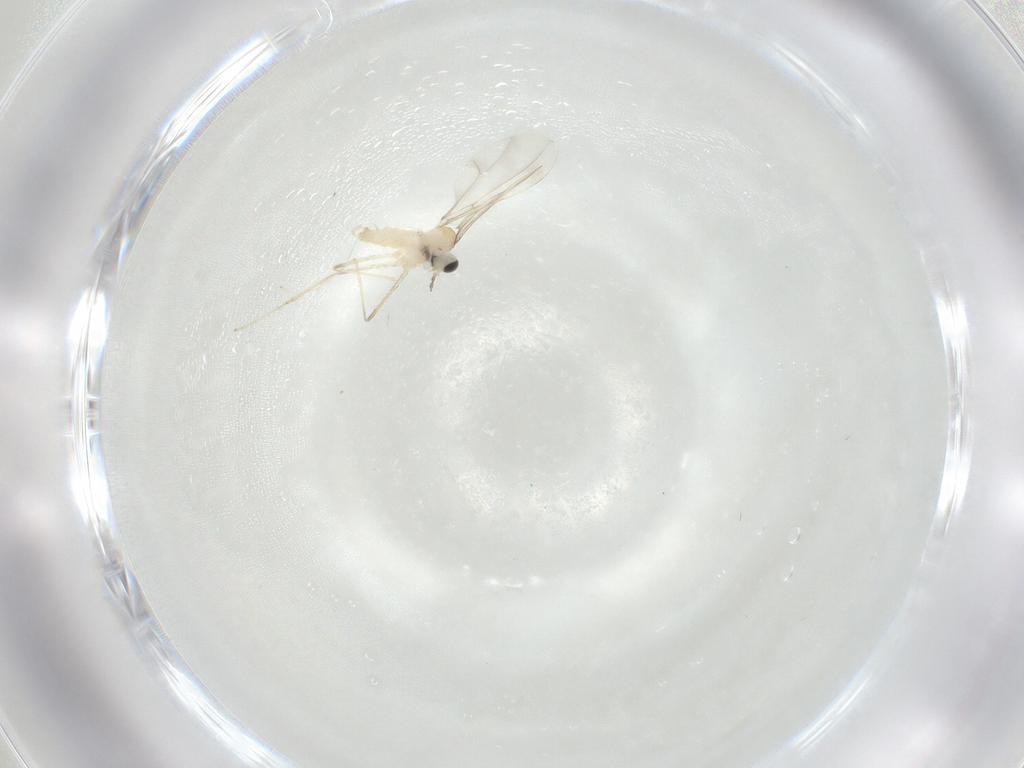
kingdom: Animalia
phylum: Arthropoda
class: Insecta
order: Diptera
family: Cecidomyiidae
